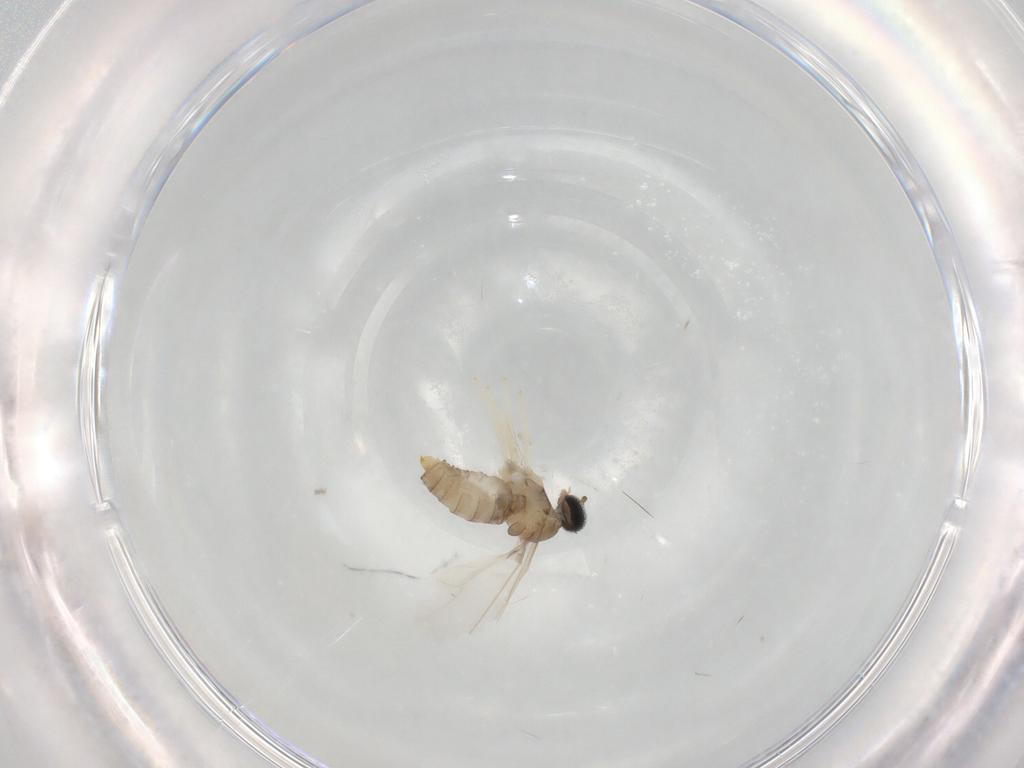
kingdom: Animalia
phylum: Arthropoda
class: Insecta
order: Diptera
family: Cecidomyiidae
